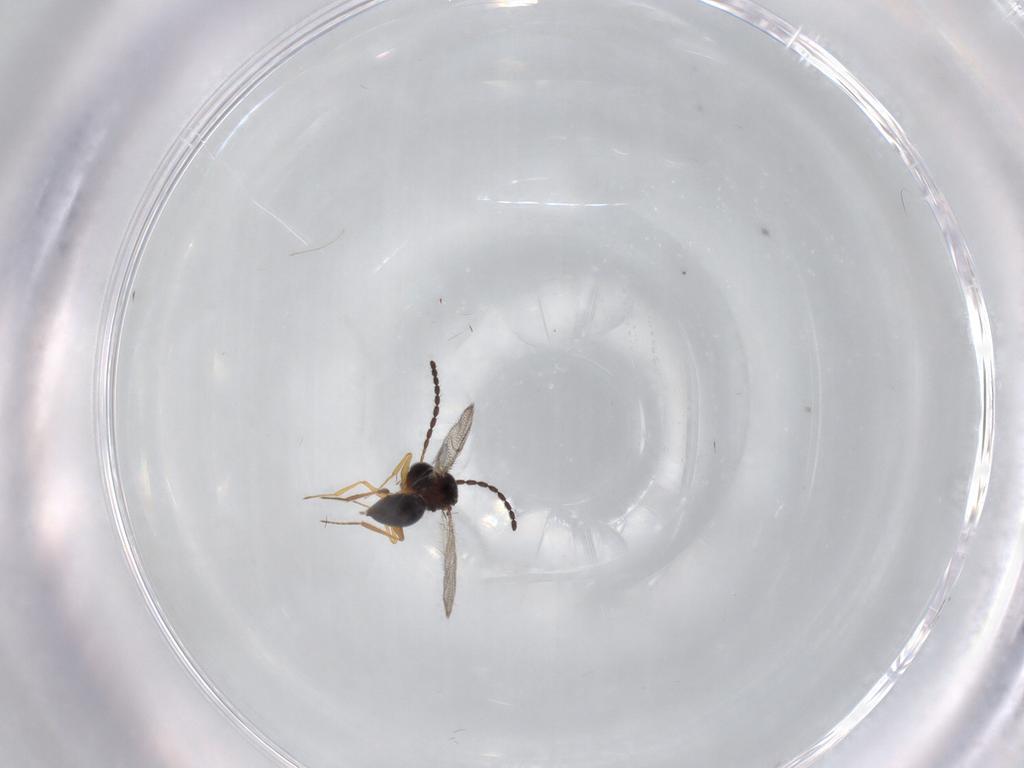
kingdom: Animalia
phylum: Arthropoda
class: Insecta
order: Hymenoptera
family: Figitidae
